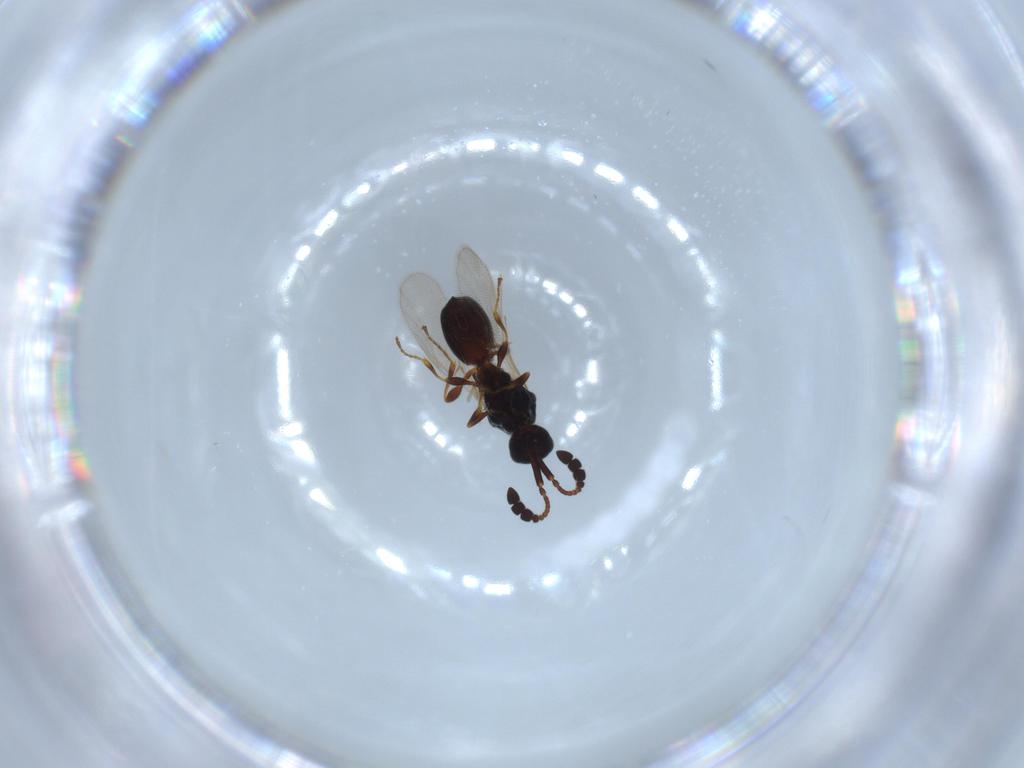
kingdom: Animalia
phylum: Arthropoda
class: Insecta
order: Hymenoptera
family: Diapriidae
